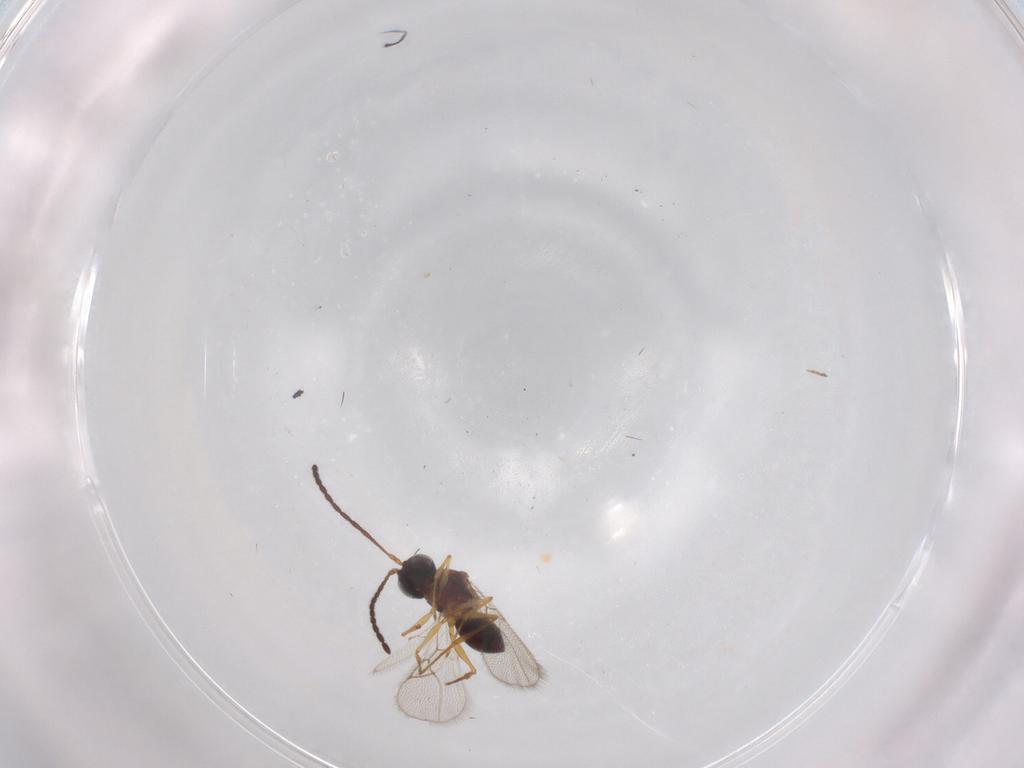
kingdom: Animalia
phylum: Arthropoda
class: Insecta
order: Hymenoptera
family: Figitidae
